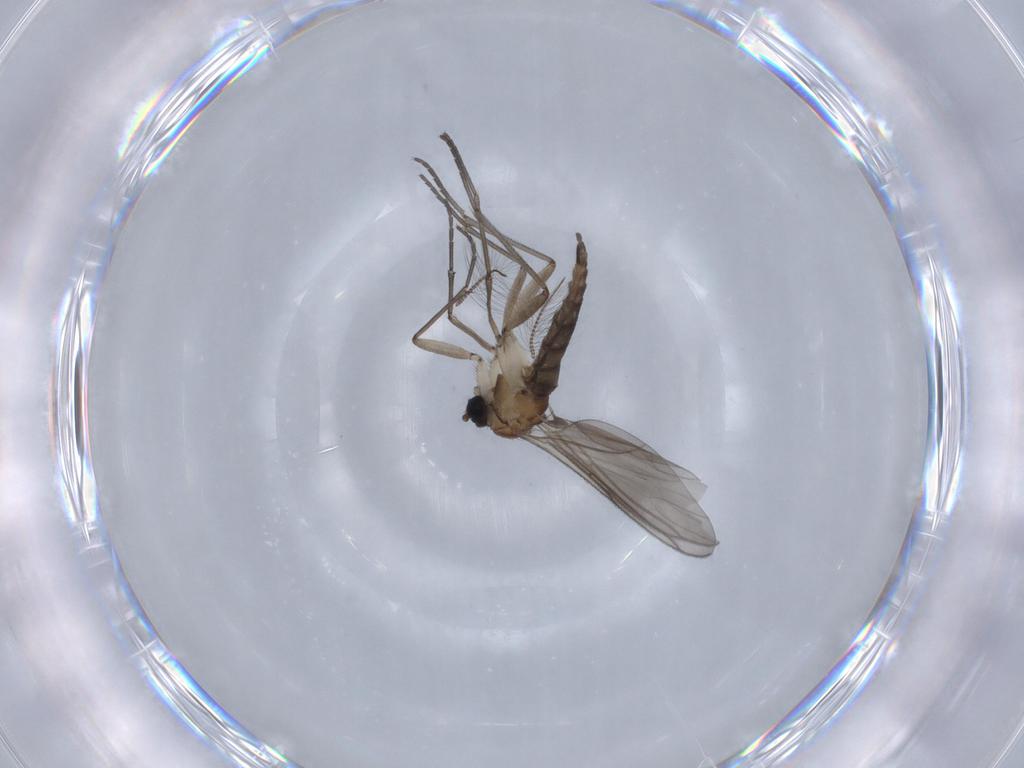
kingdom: Animalia
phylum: Arthropoda
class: Insecta
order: Diptera
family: Sciaridae
